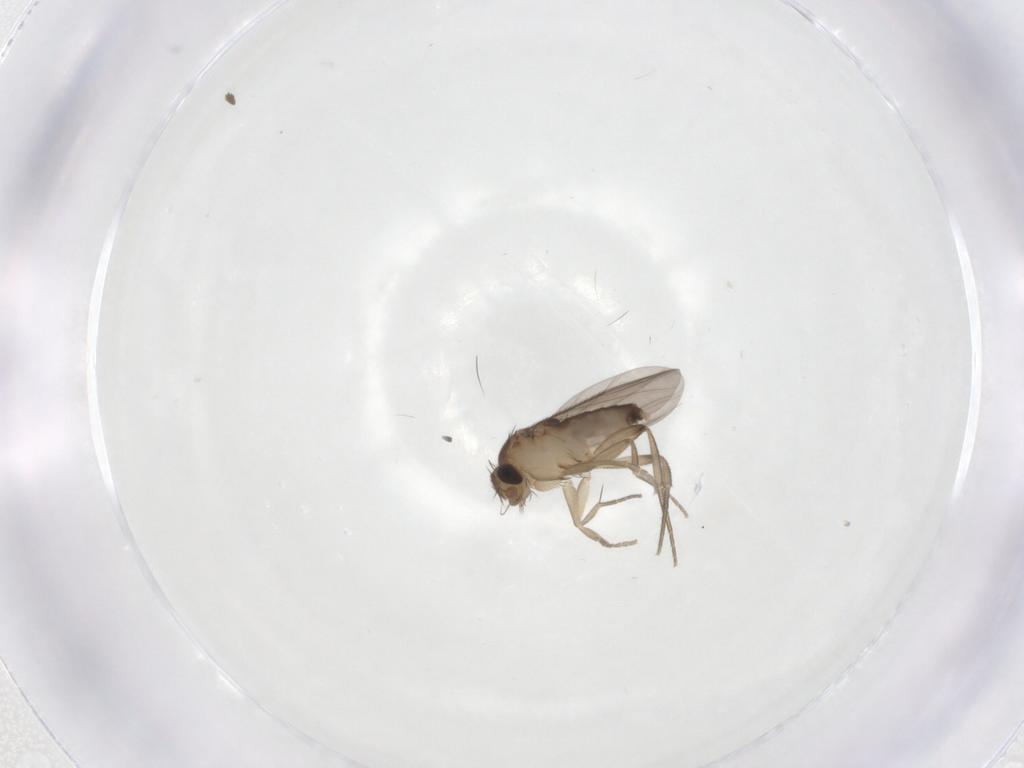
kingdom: Animalia
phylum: Arthropoda
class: Insecta
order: Diptera
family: Phoridae
